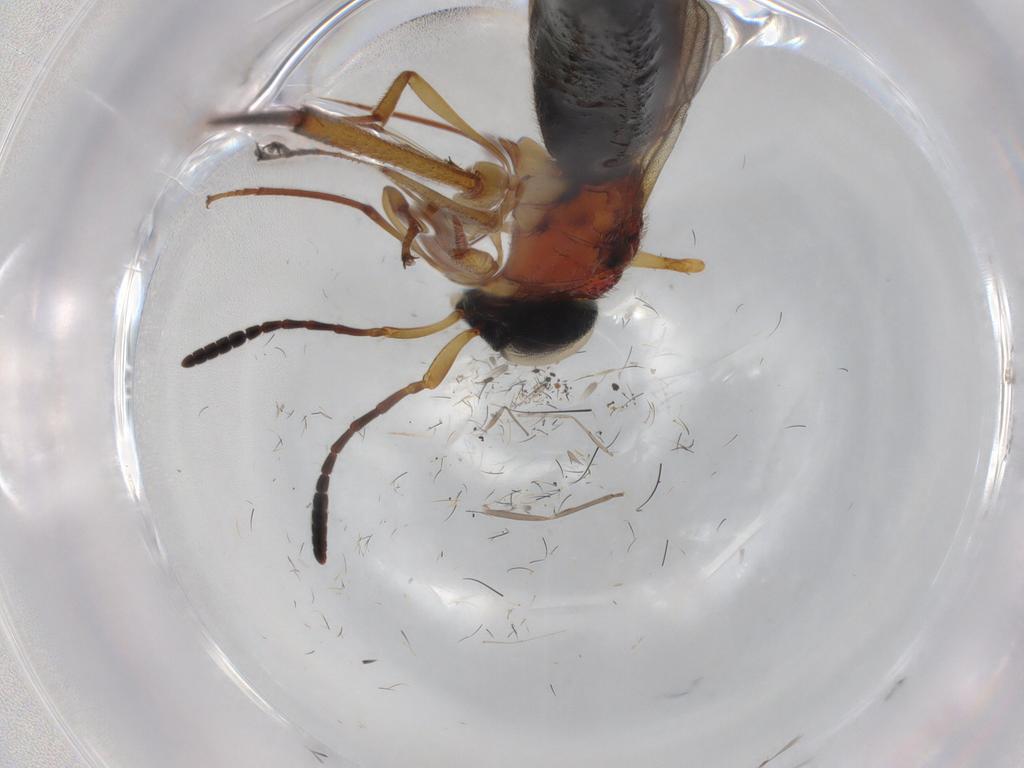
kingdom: Animalia
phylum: Arthropoda
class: Insecta
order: Hymenoptera
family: Scelionidae
